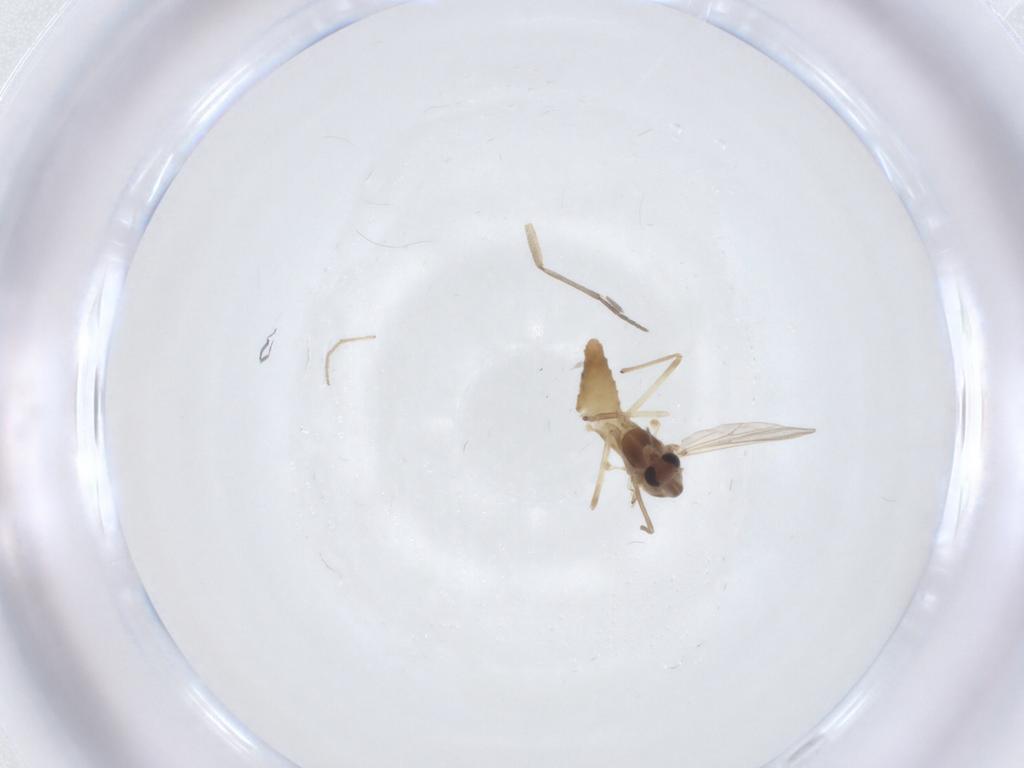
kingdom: Animalia
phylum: Arthropoda
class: Insecta
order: Diptera
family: Chironomidae
